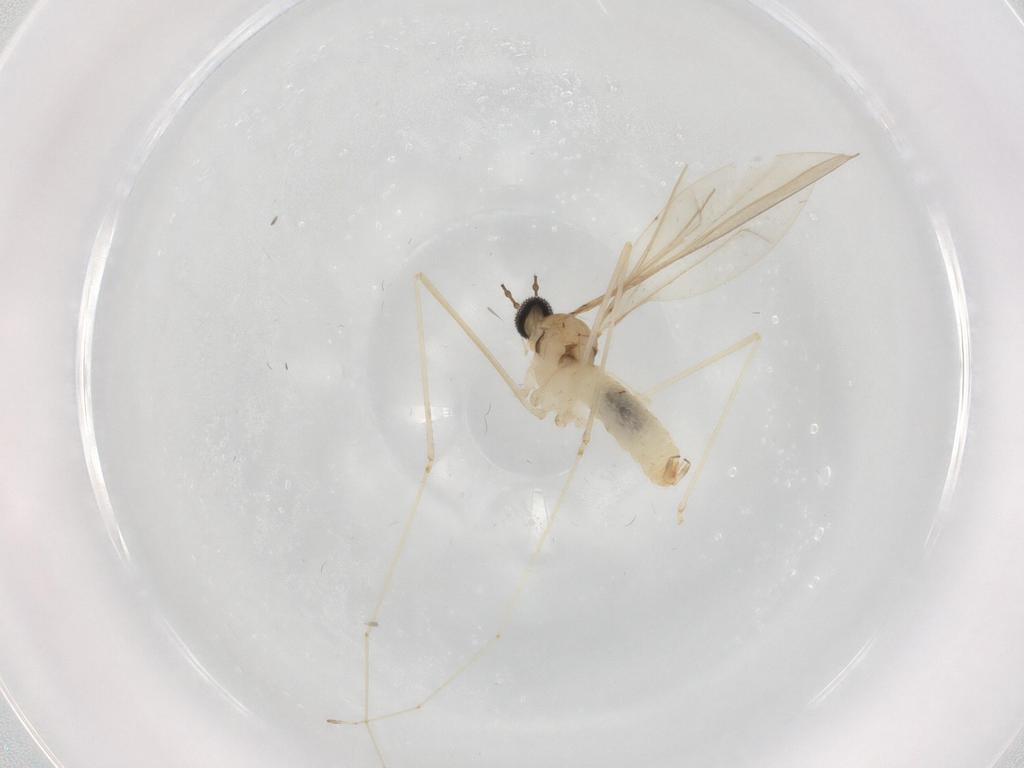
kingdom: Animalia
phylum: Arthropoda
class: Insecta
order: Diptera
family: Cecidomyiidae
